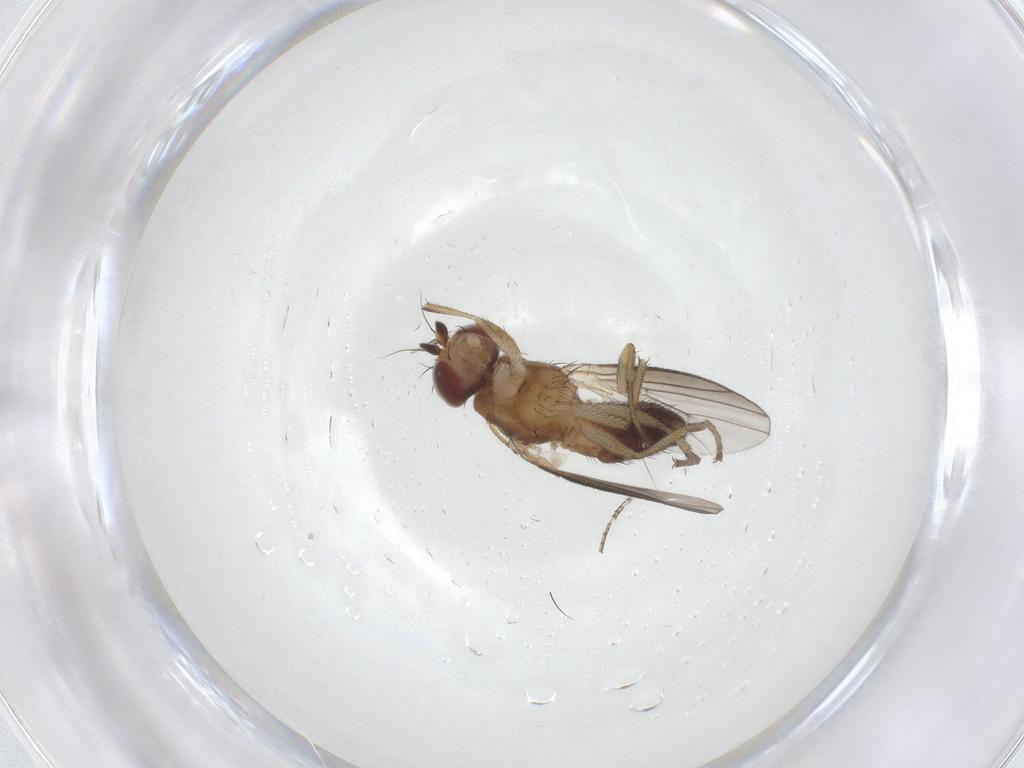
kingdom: Animalia
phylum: Arthropoda
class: Insecta
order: Diptera
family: Heleomyzidae
